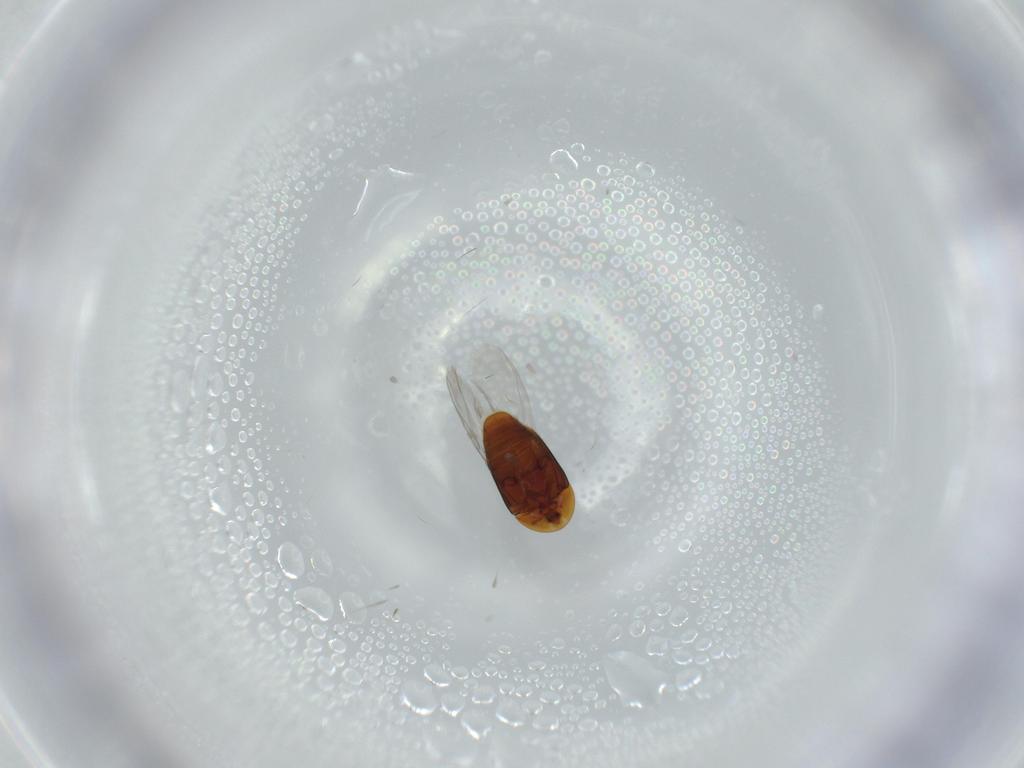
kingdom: Animalia
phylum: Arthropoda
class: Insecta
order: Coleoptera
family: Corylophidae
